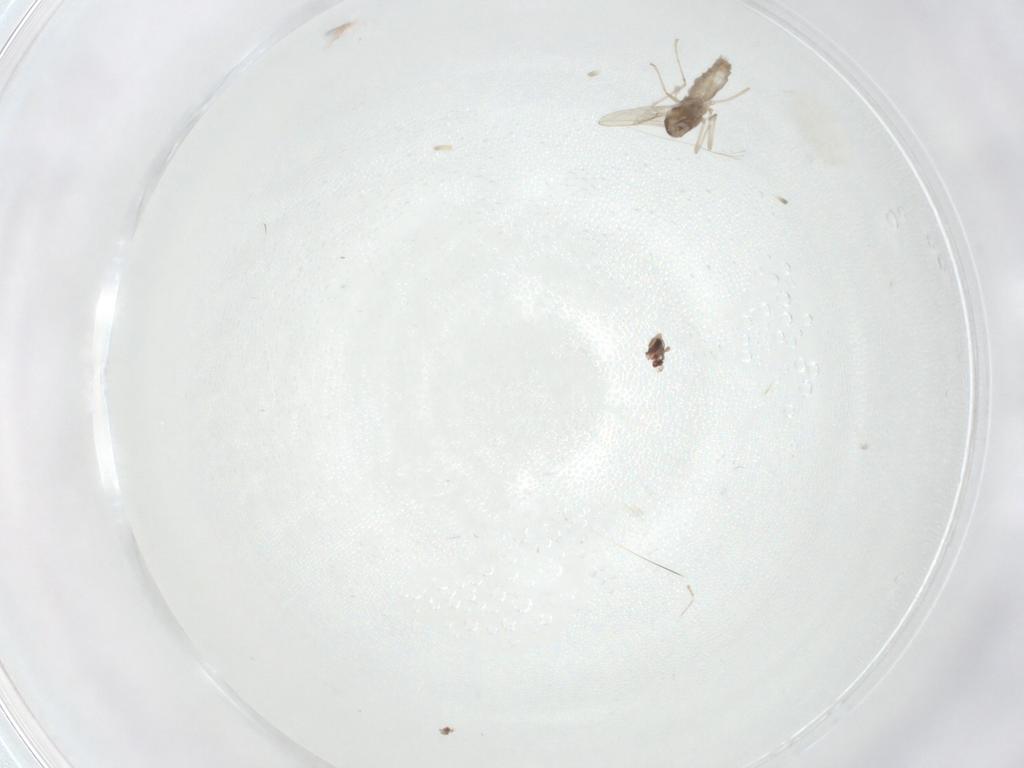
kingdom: Animalia
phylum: Arthropoda
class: Insecta
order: Diptera
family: Cecidomyiidae
